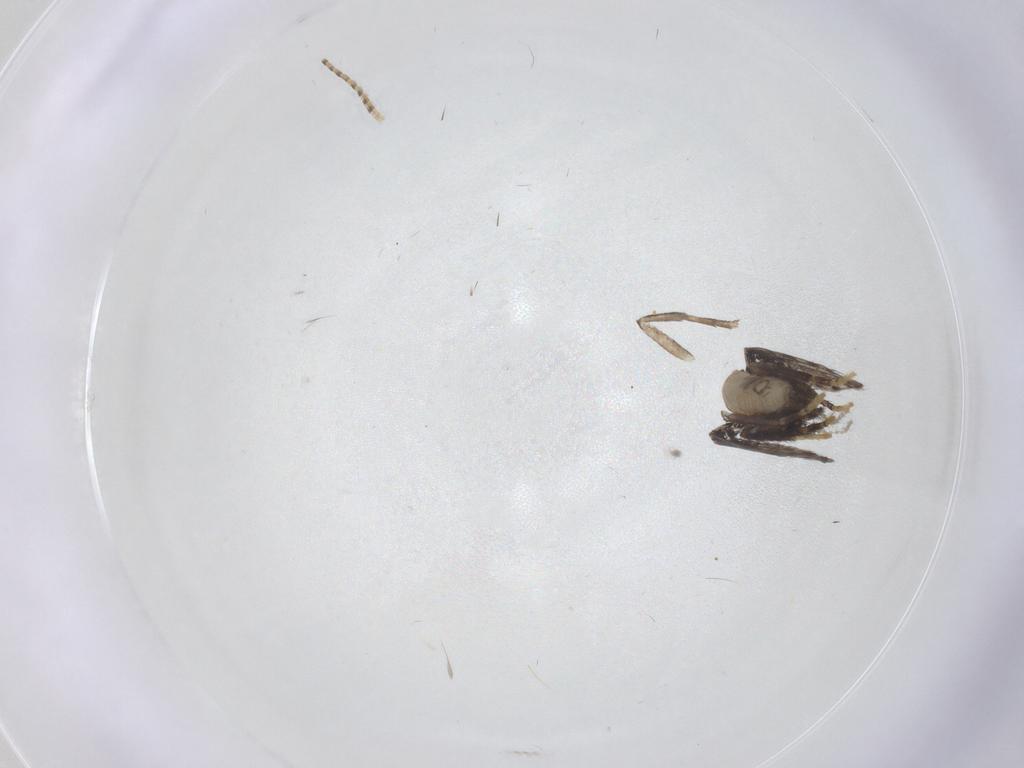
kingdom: Animalia
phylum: Arthropoda
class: Insecta
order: Diptera
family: Psychodidae
